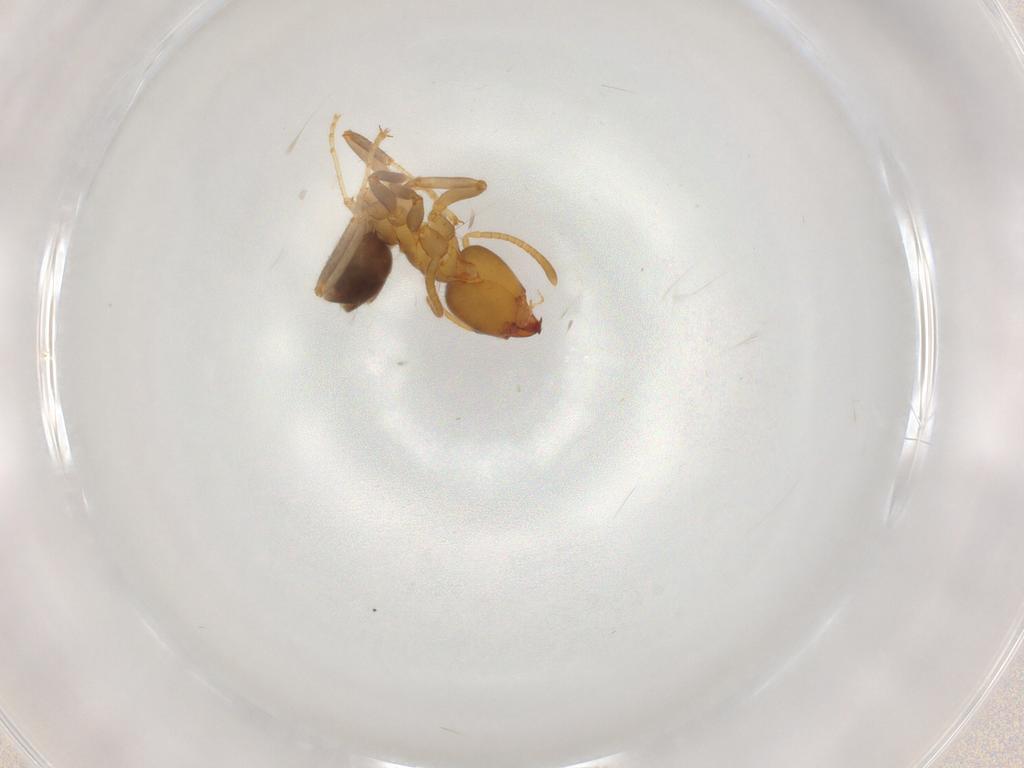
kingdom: Animalia
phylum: Arthropoda
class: Insecta
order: Hymenoptera
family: Formicidae
